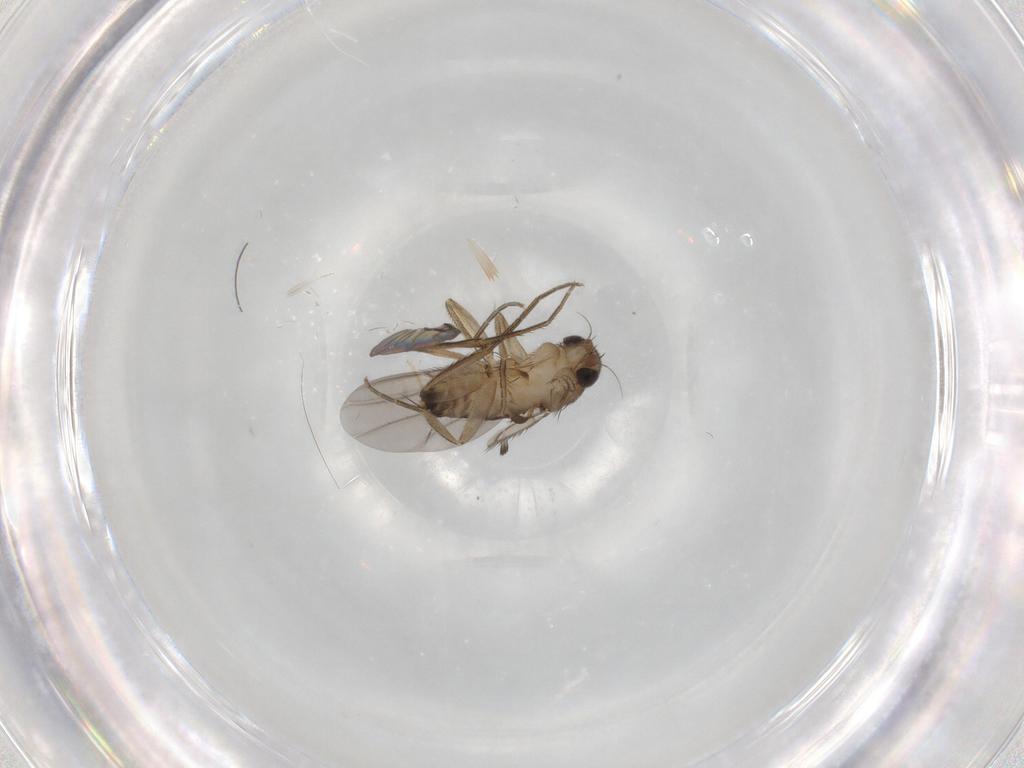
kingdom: Animalia
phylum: Arthropoda
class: Insecta
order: Diptera
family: Phoridae
